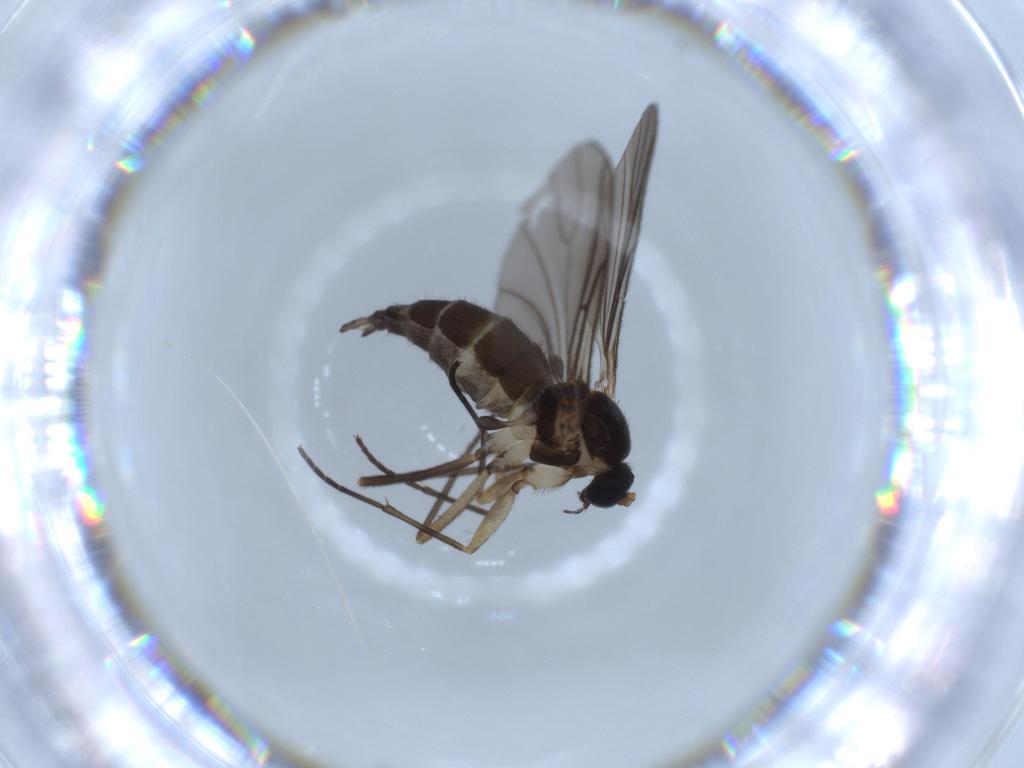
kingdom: Animalia
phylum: Arthropoda
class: Insecta
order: Diptera
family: Sciaridae
